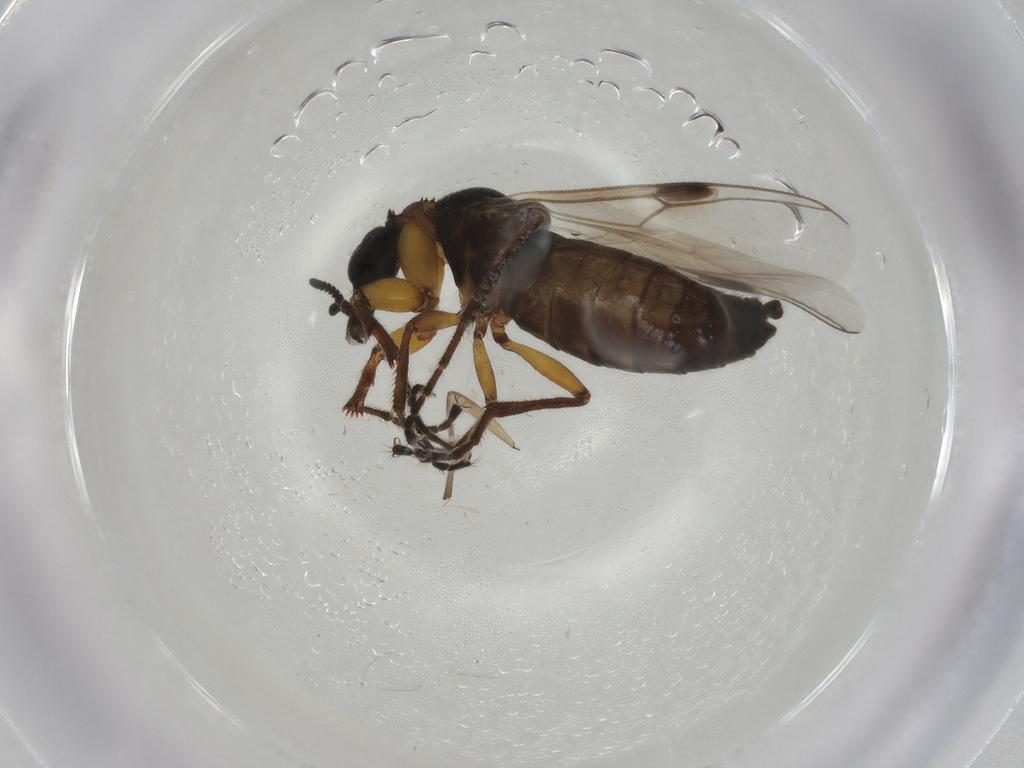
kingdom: Animalia
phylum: Arthropoda
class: Insecta
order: Diptera
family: Bibionidae
